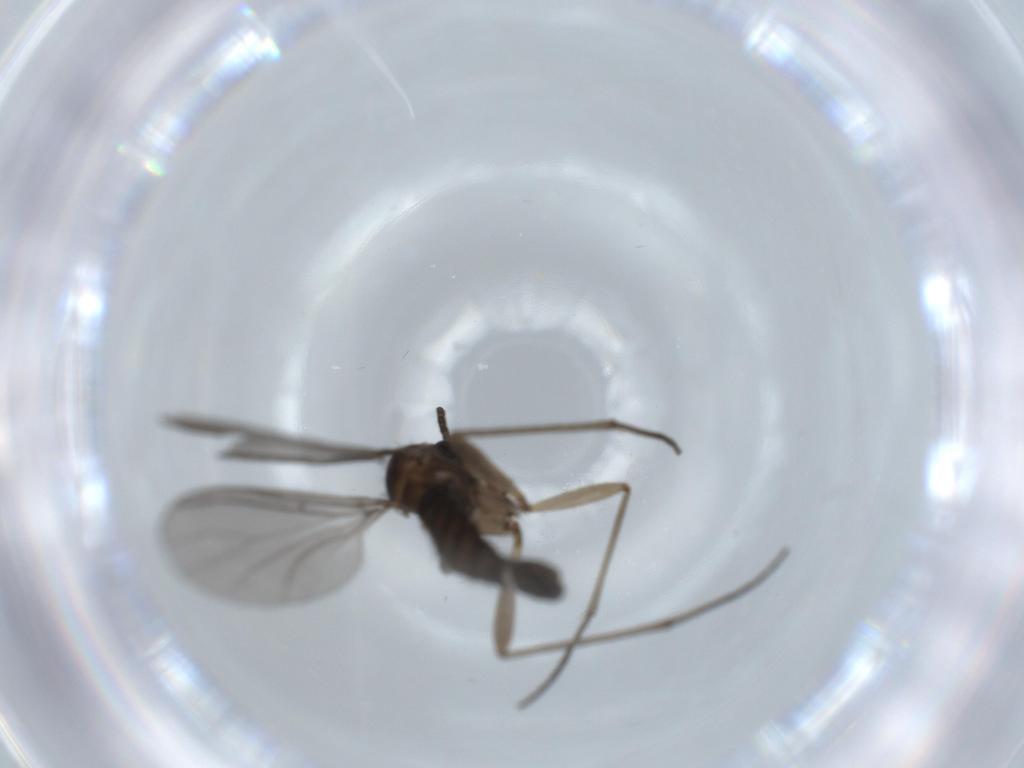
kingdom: Animalia
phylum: Arthropoda
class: Insecta
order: Diptera
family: Sciaridae
